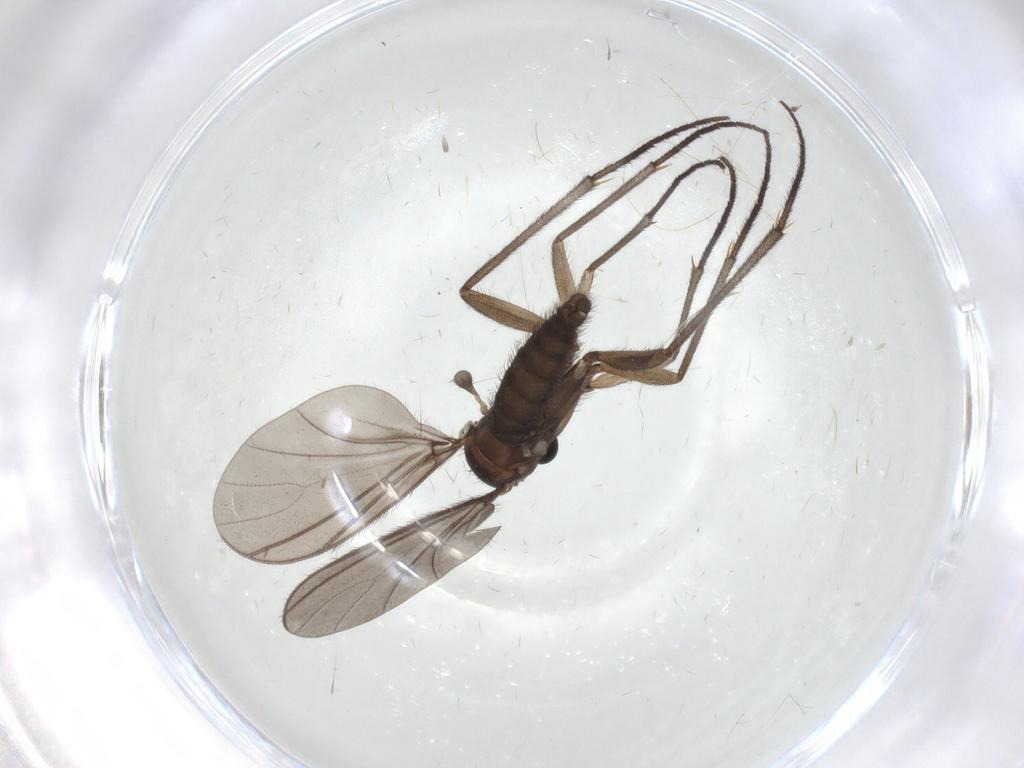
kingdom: Animalia
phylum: Arthropoda
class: Insecta
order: Diptera
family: Sciaridae
